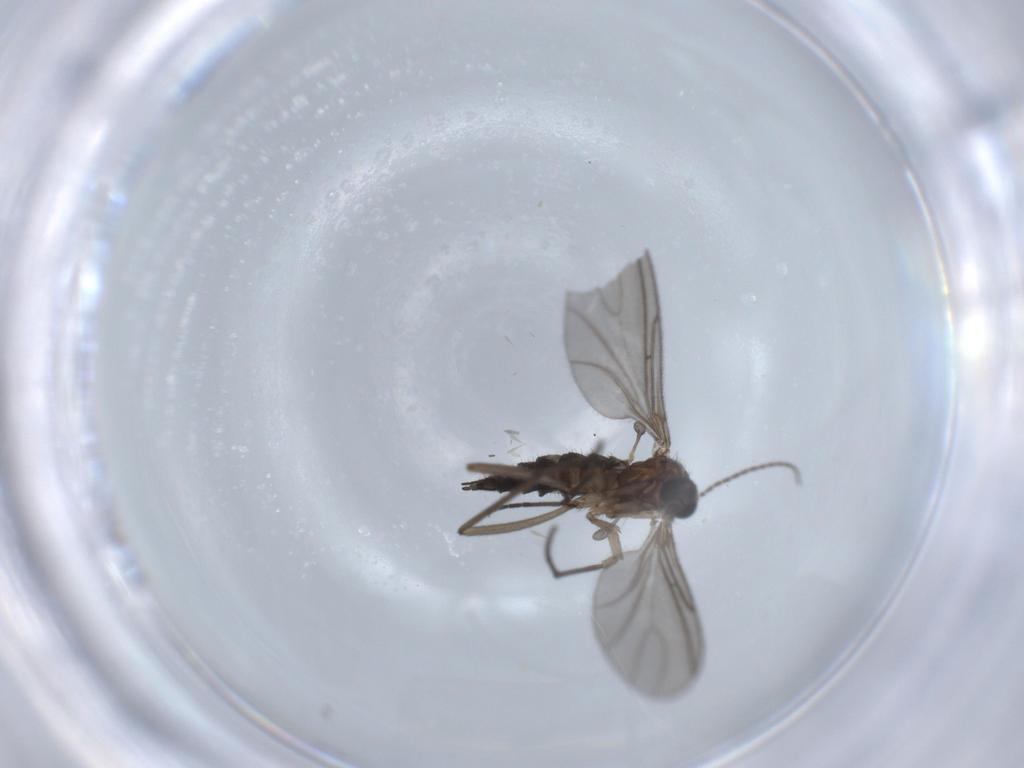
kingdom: Animalia
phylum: Arthropoda
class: Insecta
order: Diptera
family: Sciaridae
